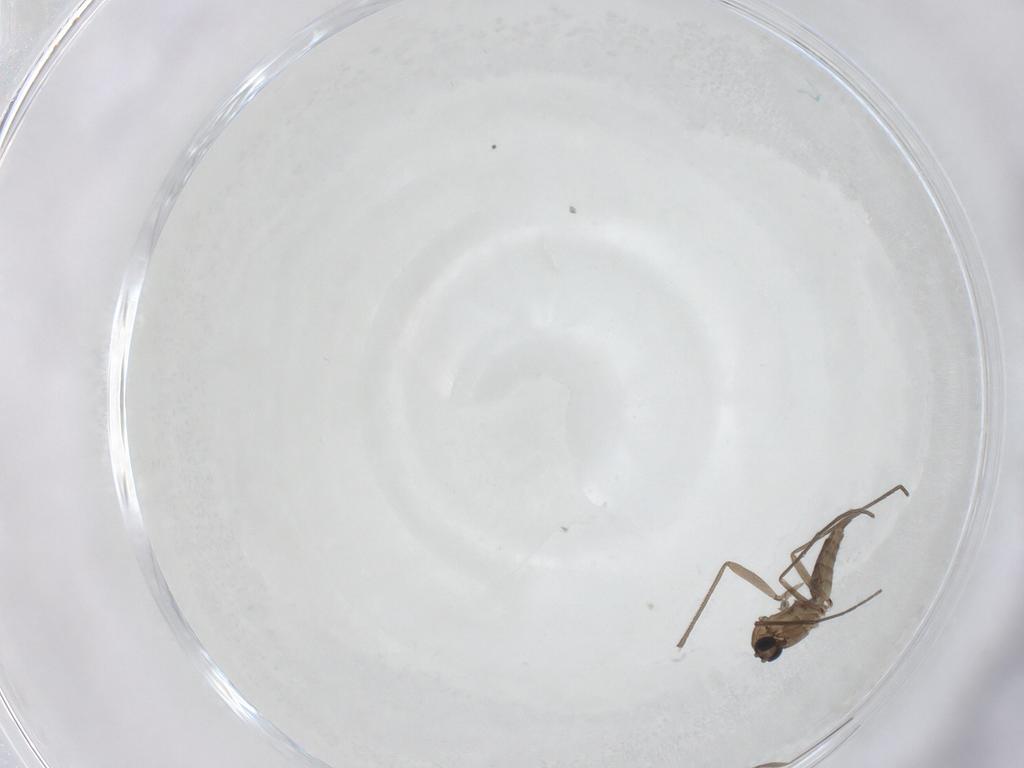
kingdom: Animalia
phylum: Arthropoda
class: Insecta
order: Diptera
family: Sciaridae
